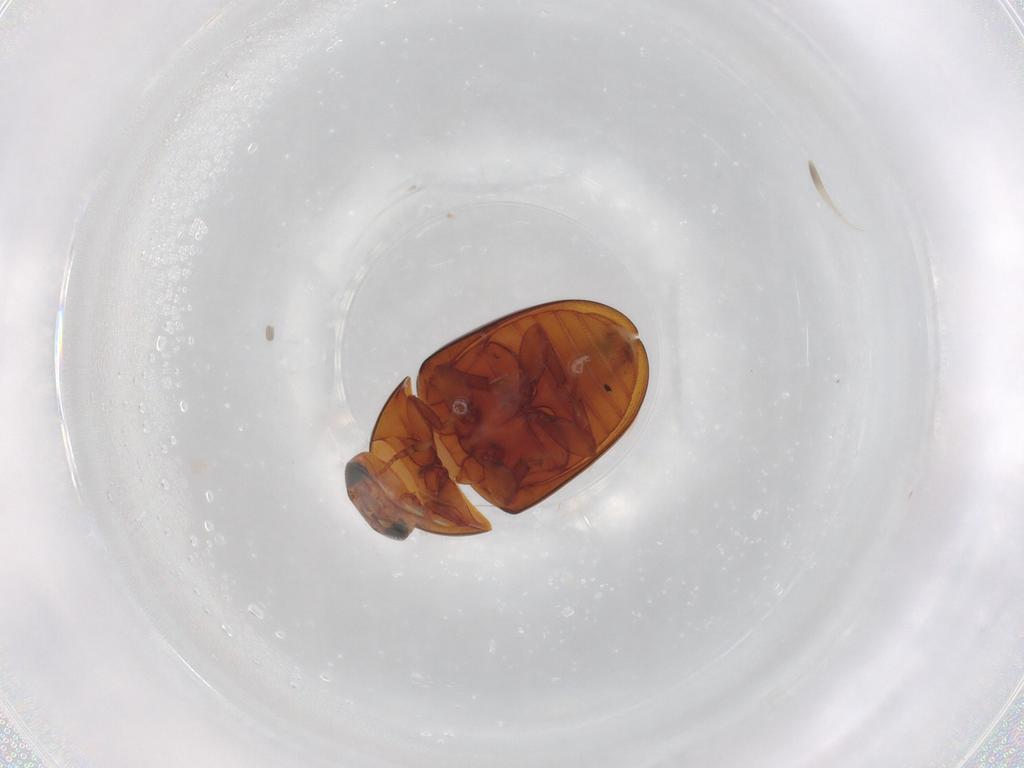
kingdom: Animalia
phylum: Arthropoda
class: Insecta
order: Coleoptera
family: Phalacridae
